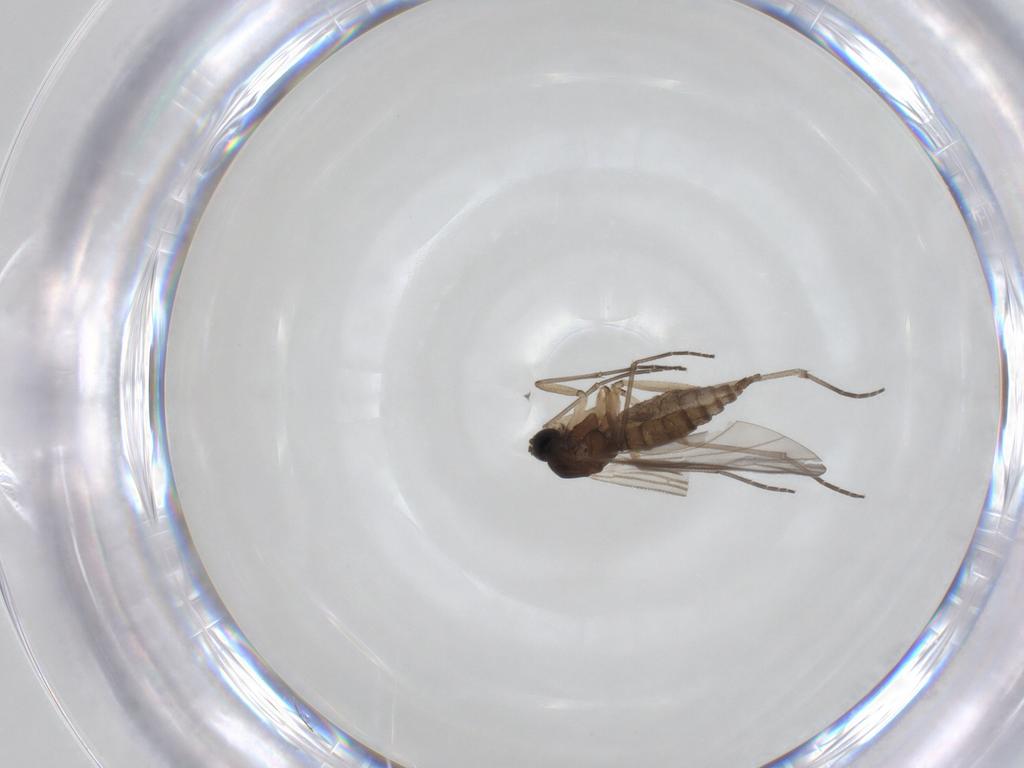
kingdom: Animalia
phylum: Arthropoda
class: Insecta
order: Diptera
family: Sciaridae
